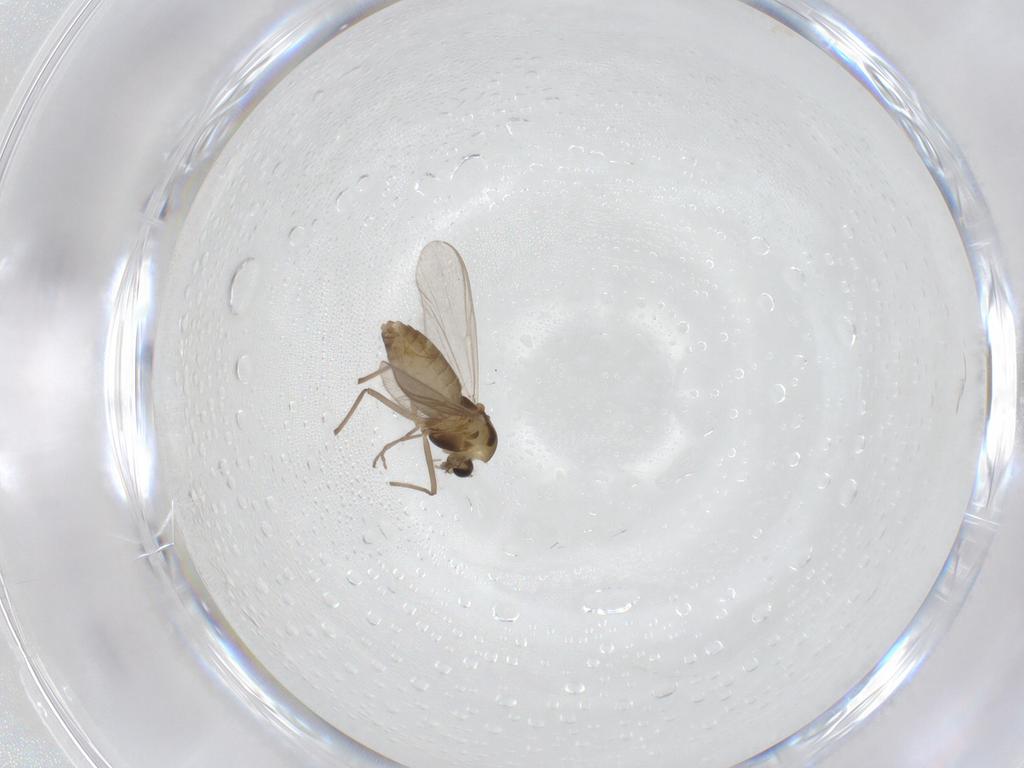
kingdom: Animalia
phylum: Arthropoda
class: Insecta
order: Diptera
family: Chironomidae
